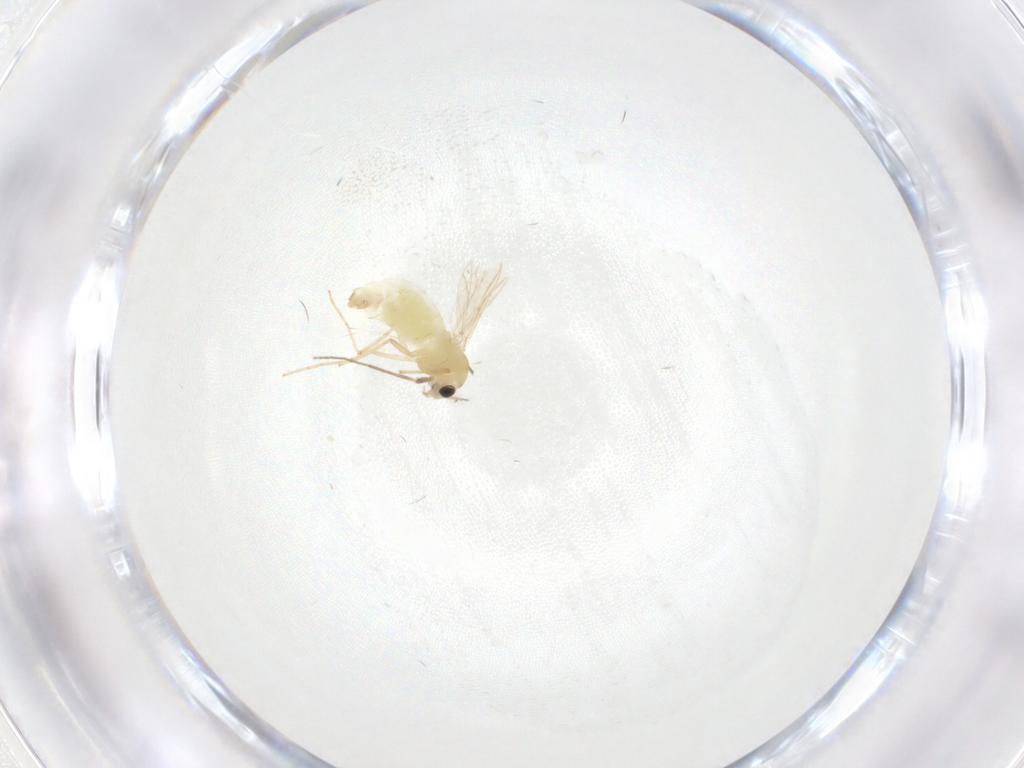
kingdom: Animalia
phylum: Arthropoda
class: Insecta
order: Diptera
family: Chironomidae
